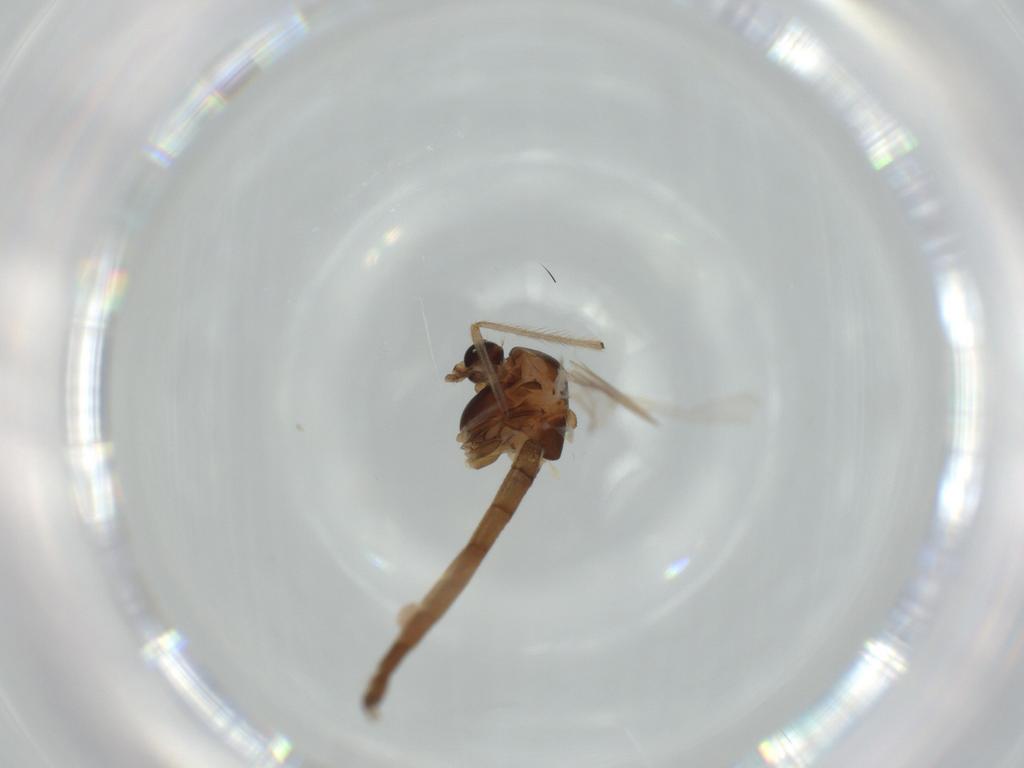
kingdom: Animalia
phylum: Arthropoda
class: Insecta
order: Diptera
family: Chironomidae
